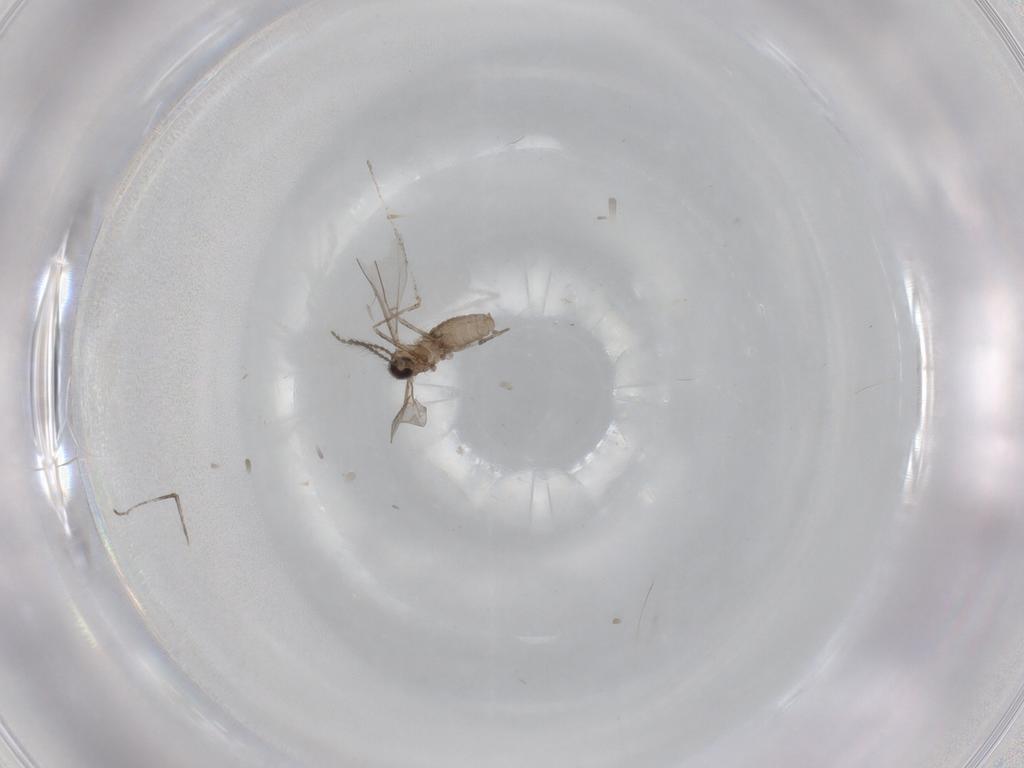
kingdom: Animalia
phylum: Arthropoda
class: Insecta
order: Diptera
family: Cecidomyiidae
